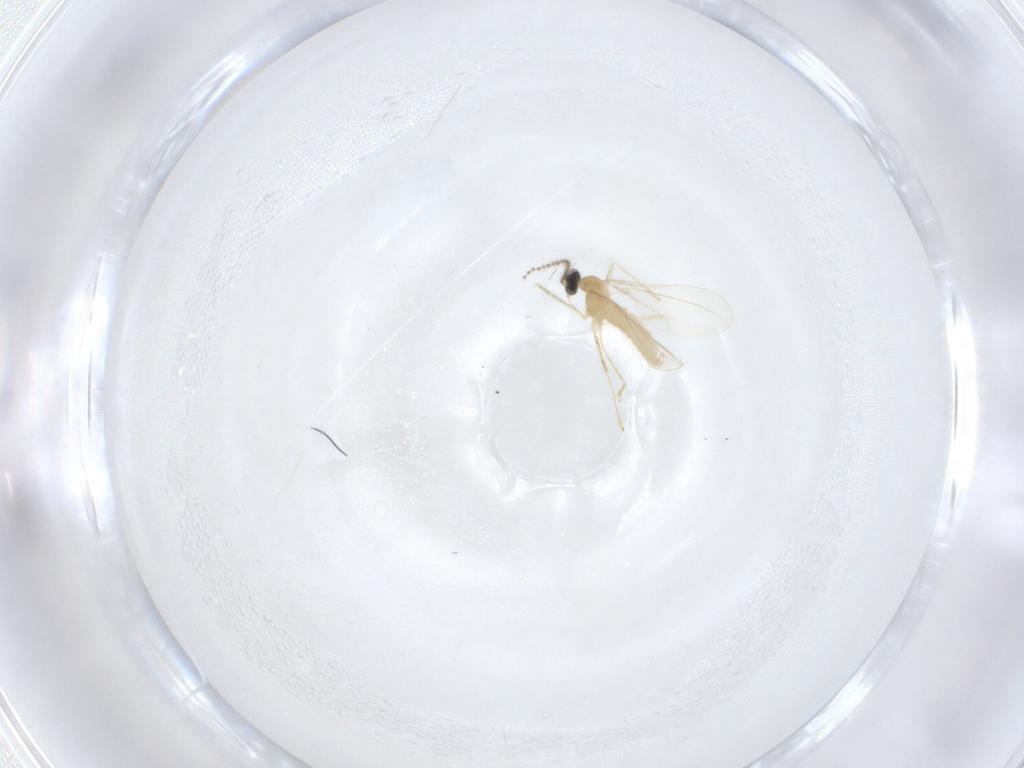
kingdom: Animalia
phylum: Arthropoda
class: Insecta
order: Diptera
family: Cecidomyiidae
